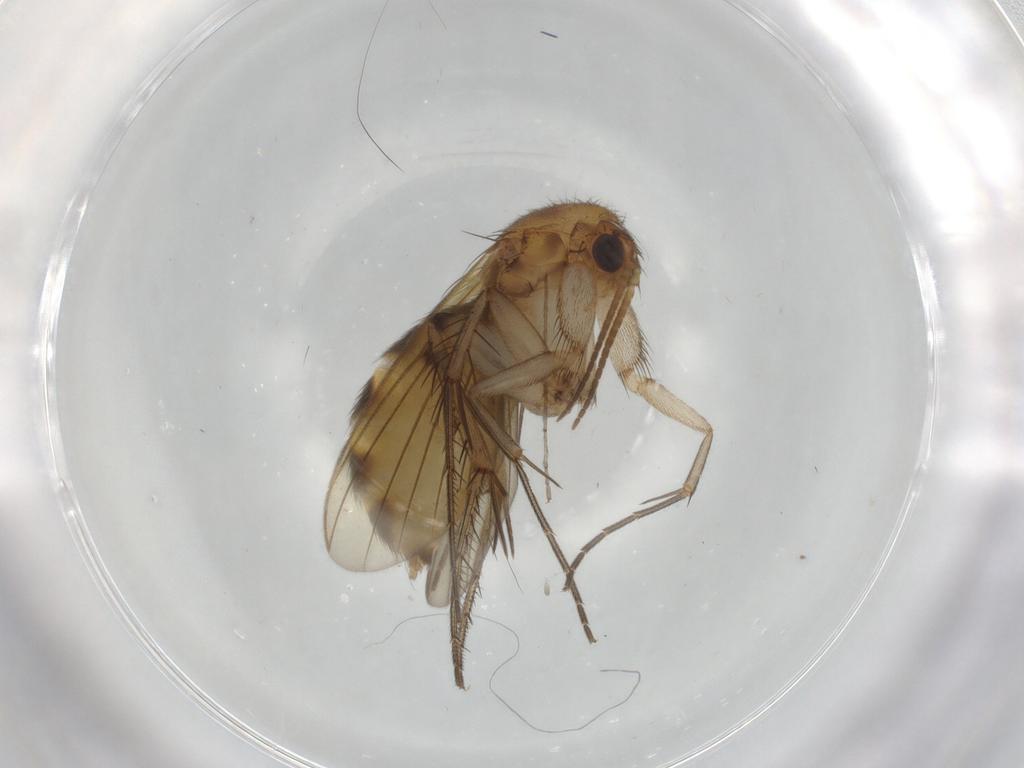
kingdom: Animalia
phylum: Arthropoda
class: Insecta
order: Diptera
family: Mycetophilidae
